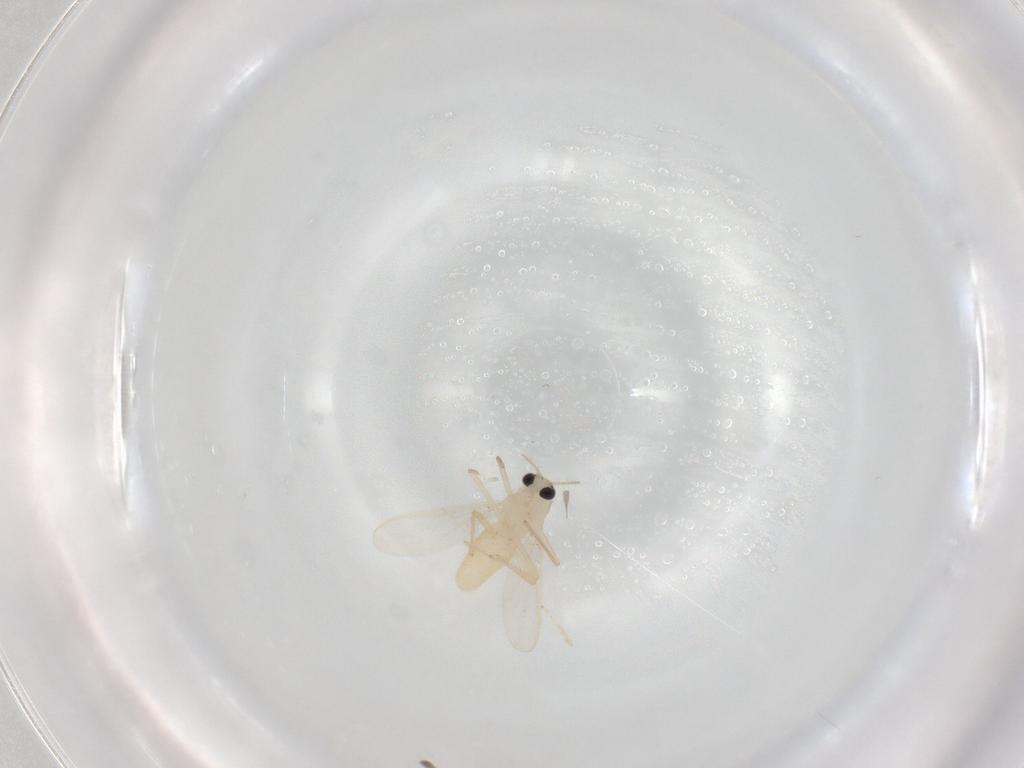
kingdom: Animalia
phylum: Arthropoda
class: Insecta
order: Diptera
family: Chironomidae
